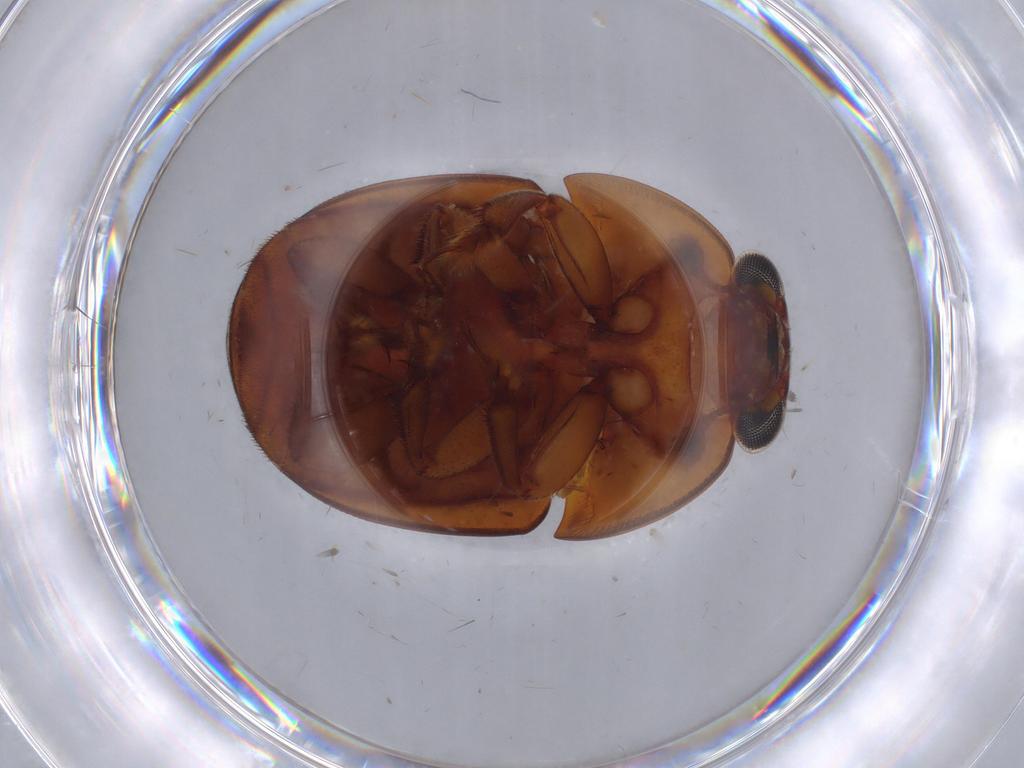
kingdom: Animalia
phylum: Arthropoda
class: Insecta
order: Coleoptera
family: Nitidulidae
